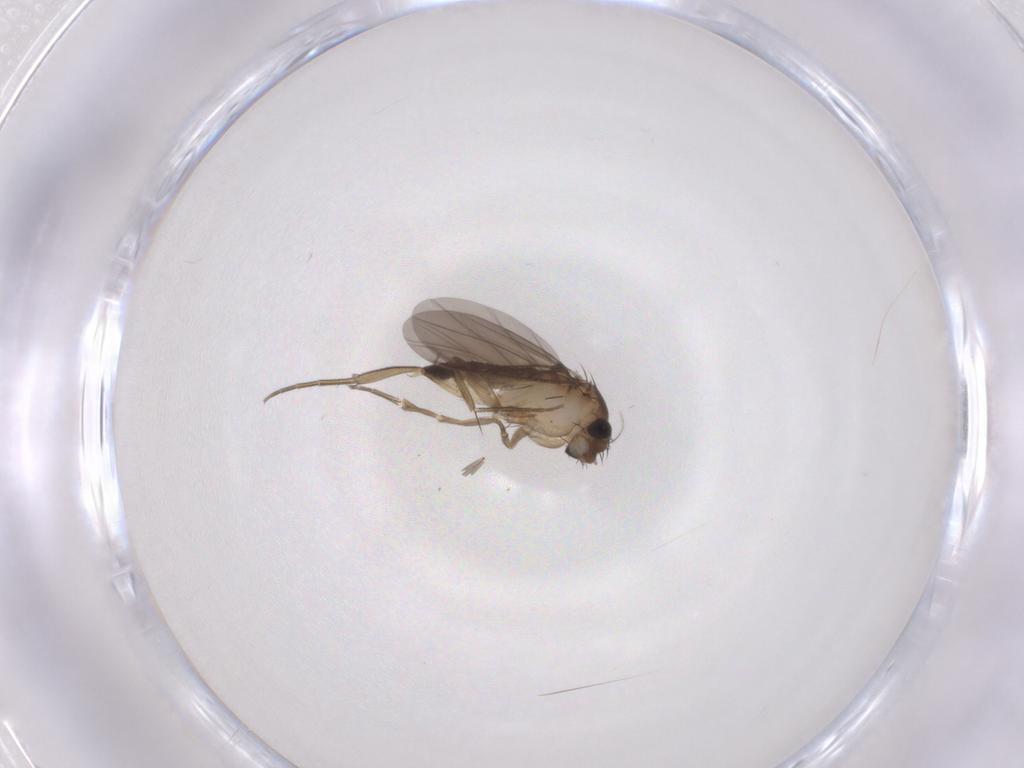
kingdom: Animalia
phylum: Arthropoda
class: Insecta
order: Diptera
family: Phoridae
